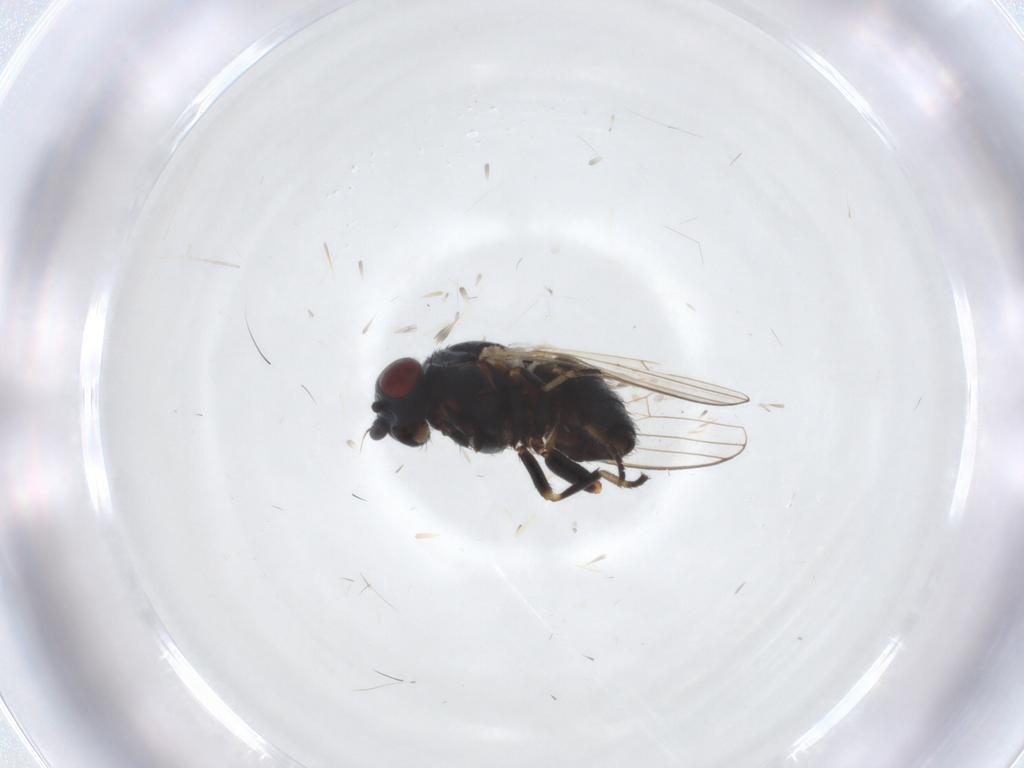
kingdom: Animalia
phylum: Arthropoda
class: Insecta
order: Diptera
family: Chamaemyiidae
